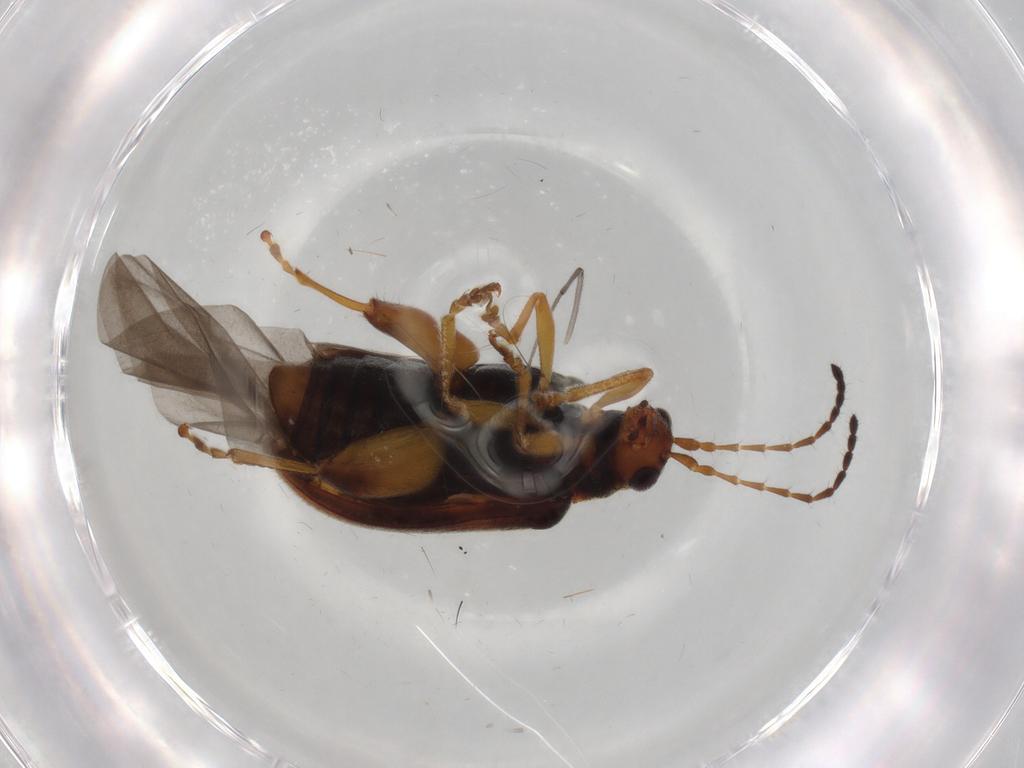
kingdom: Animalia
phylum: Arthropoda
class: Insecta
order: Coleoptera
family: Chrysomelidae
